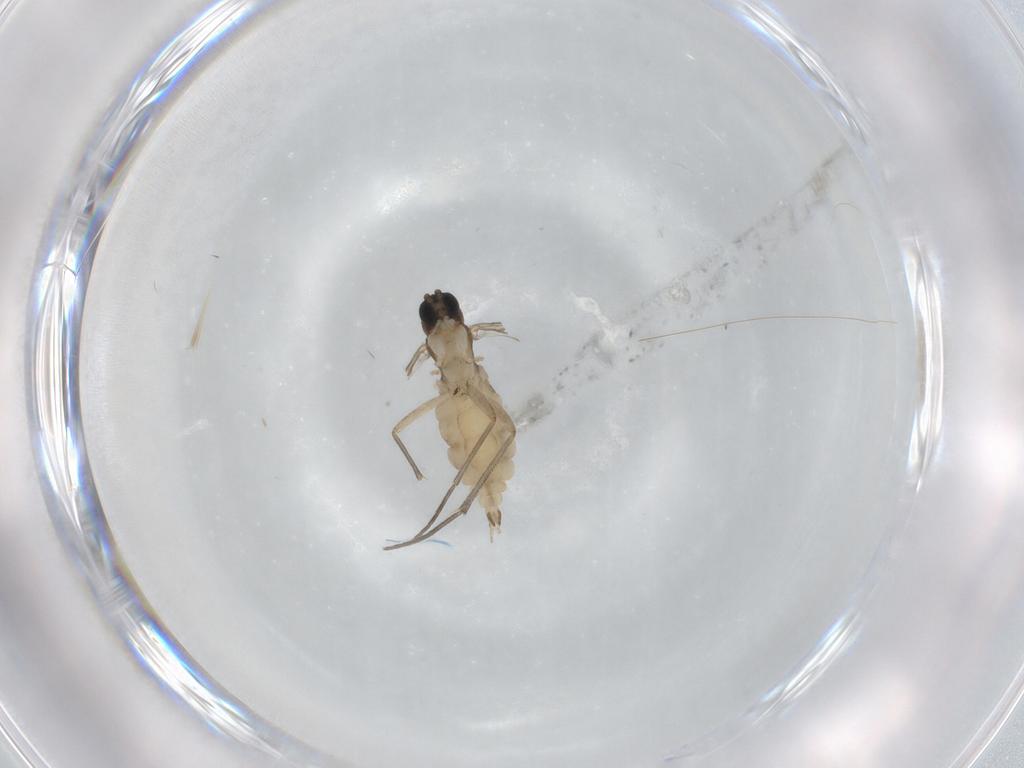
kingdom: Animalia
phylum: Arthropoda
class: Insecta
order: Diptera
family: Sciaridae
